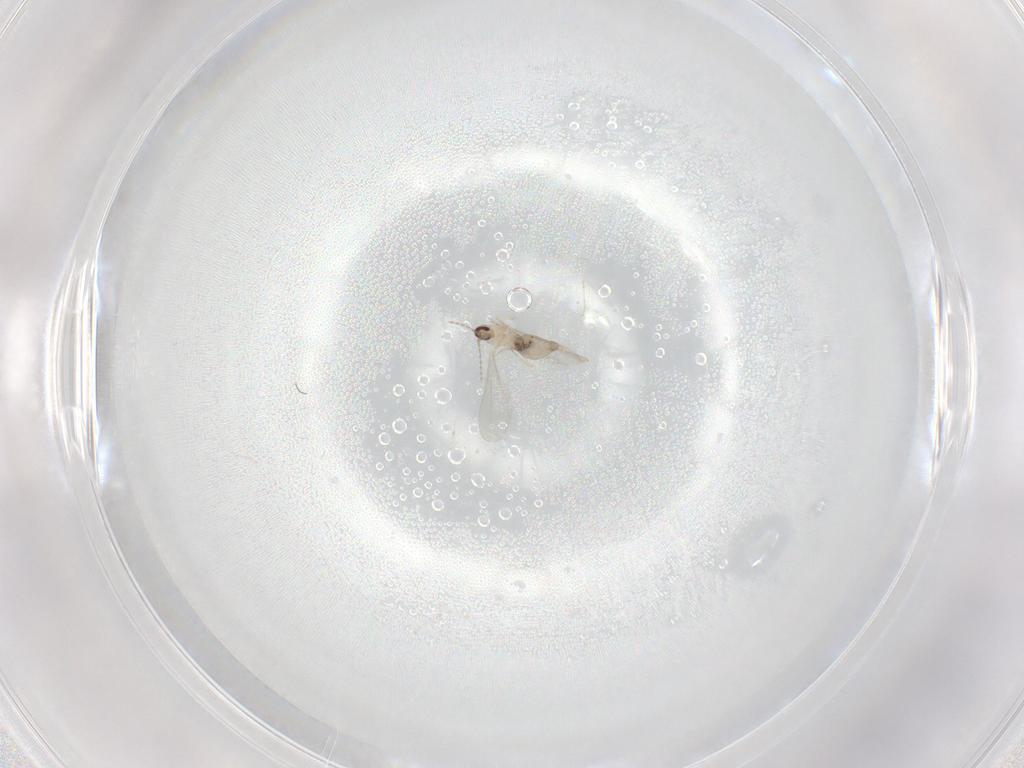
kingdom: Animalia
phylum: Arthropoda
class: Insecta
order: Diptera
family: Cecidomyiidae
